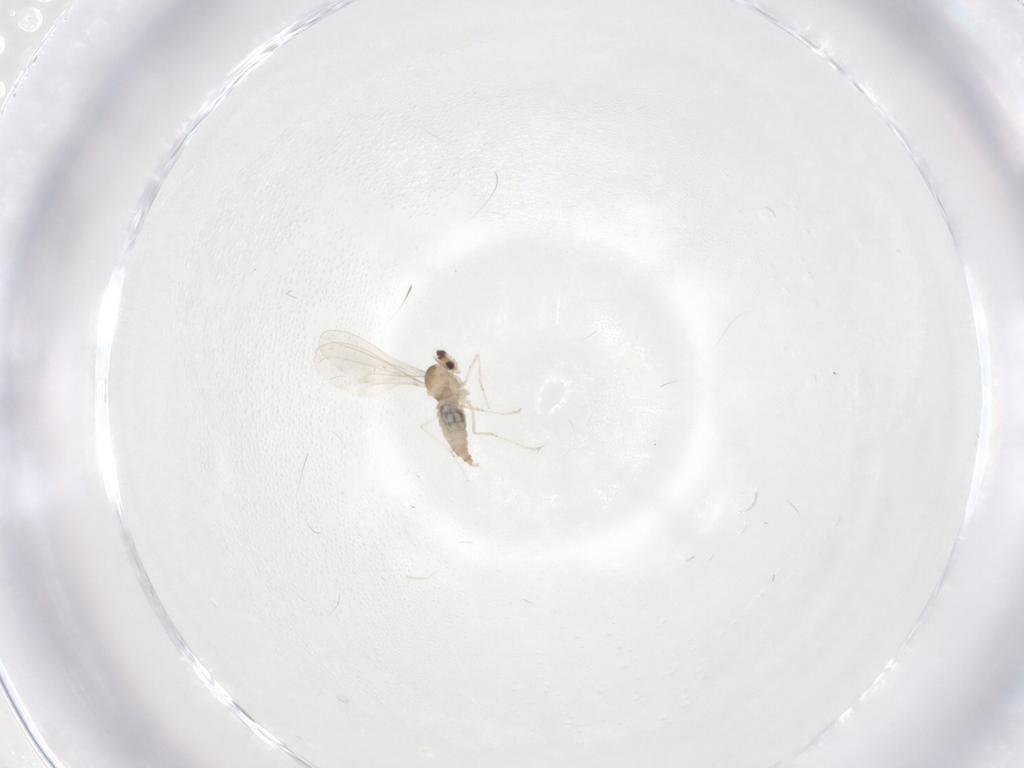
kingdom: Animalia
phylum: Arthropoda
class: Insecta
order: Diptera
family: Cecidomyiidae
